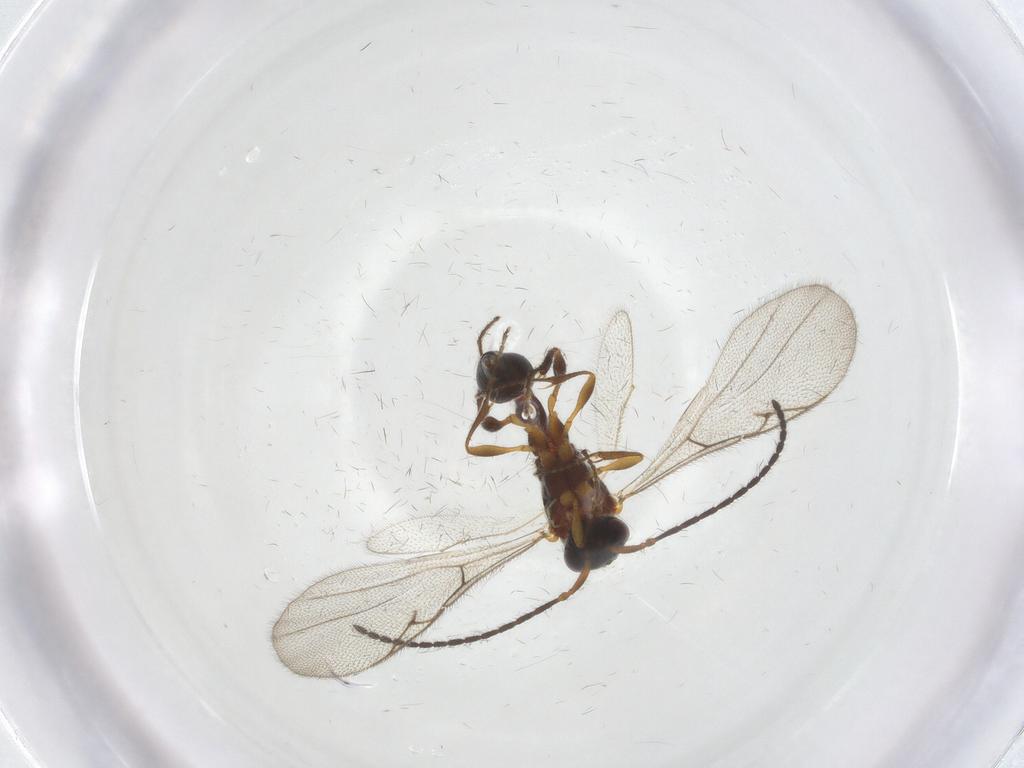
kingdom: Animalia
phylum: Arthropoda
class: Insecta
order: Hymenoptera
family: Diapriidae
